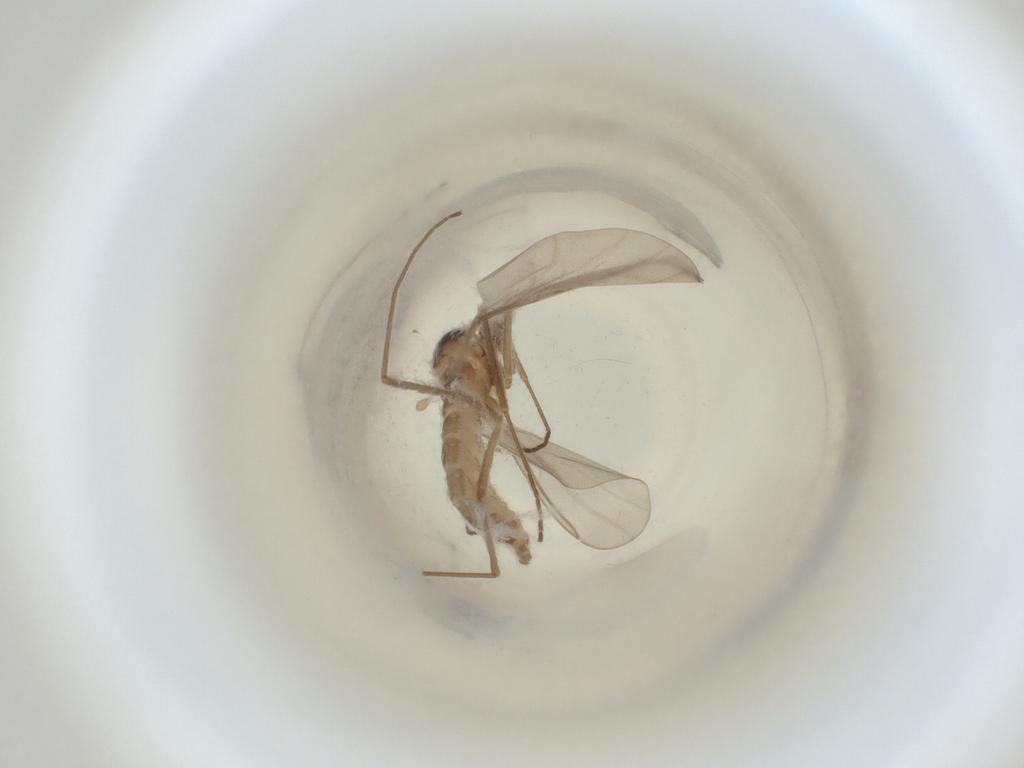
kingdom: Animalia
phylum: Arthropoda
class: Insecta
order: Diptera
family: Cecidomyiidae
